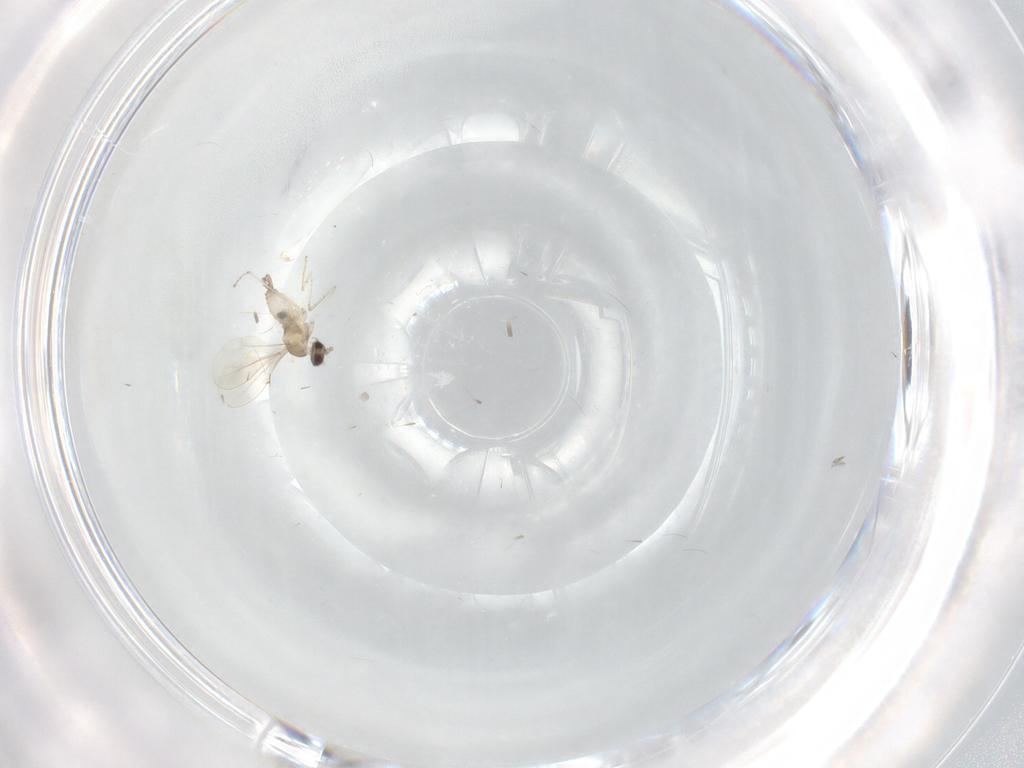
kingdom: Animalia
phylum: Arthropoda
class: Insecta
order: Diptera
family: Cecidomyiidae
